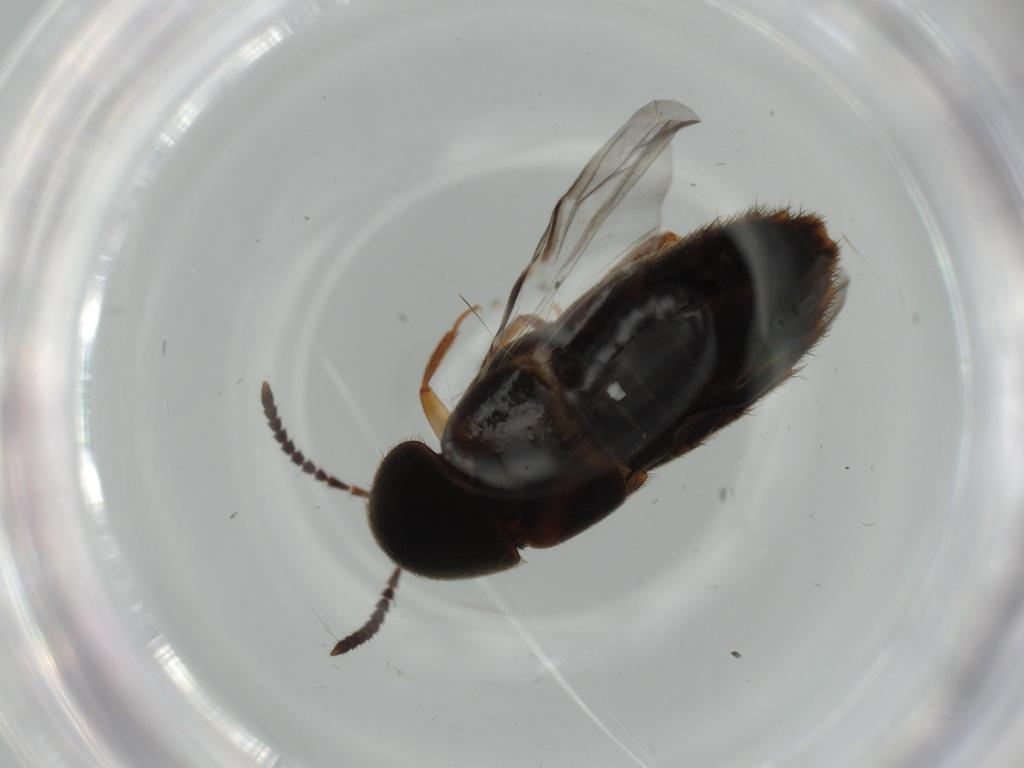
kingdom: Animalia
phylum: Arthropoda
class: Insecta
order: Coleoptera
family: Staphylinidae
